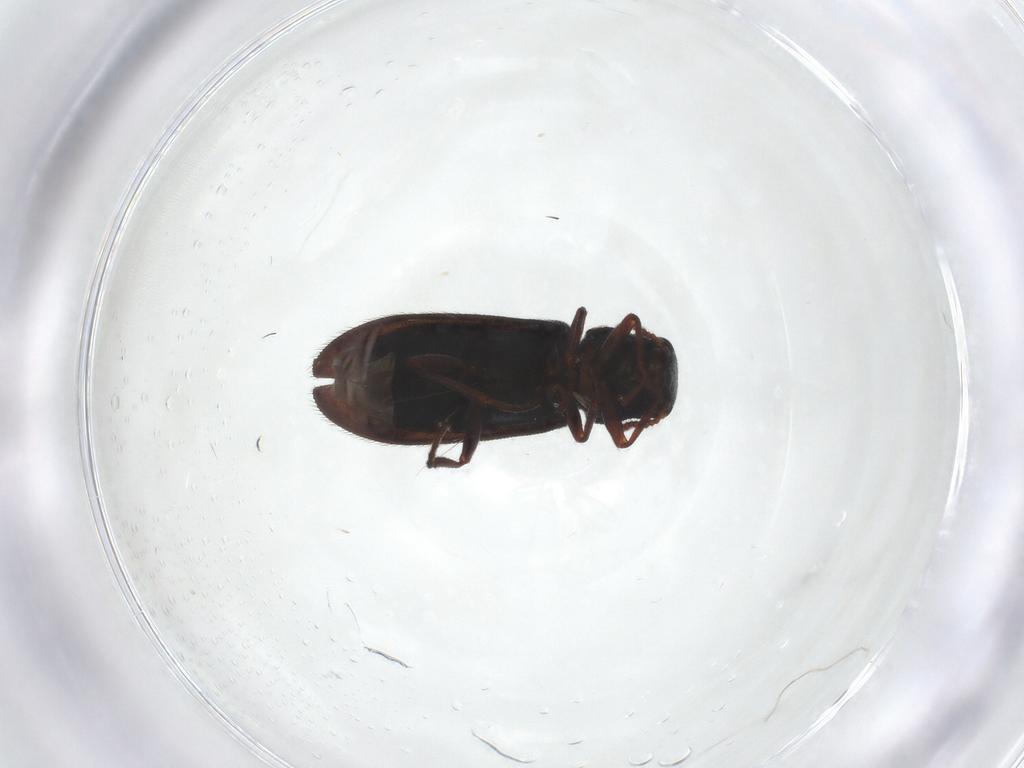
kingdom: Animalia
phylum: Arthropoda
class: Insecta
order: Coleoptera
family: Melyridae
